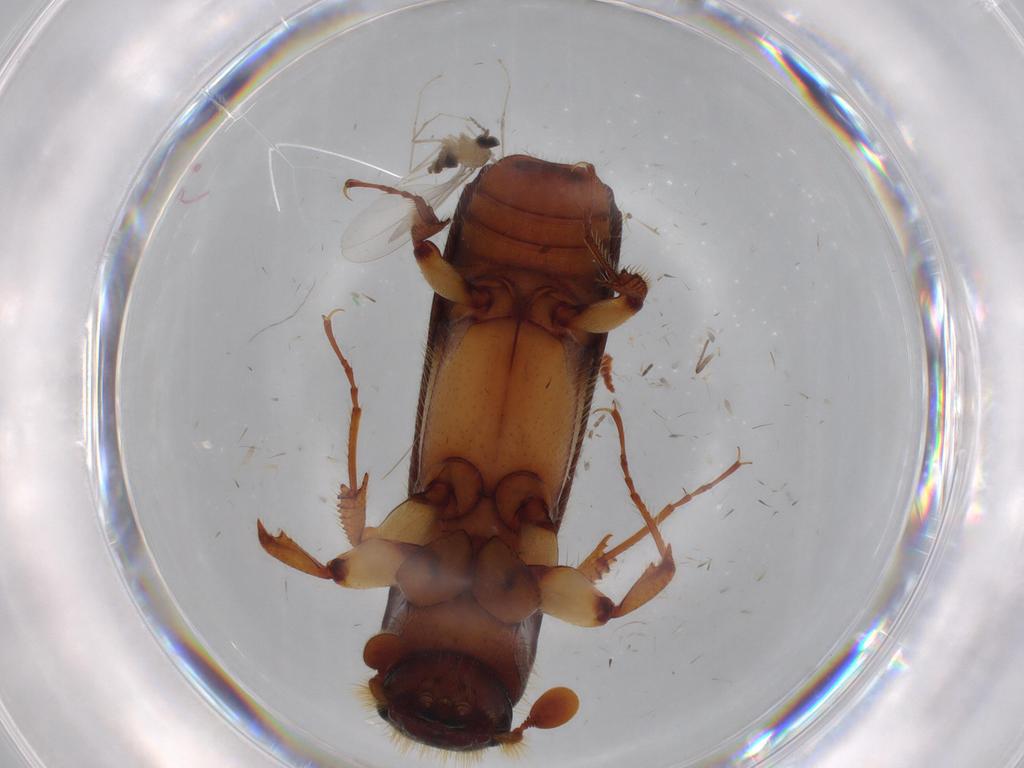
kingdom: Animalia
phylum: Arthropoda
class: Insecta
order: Coleoptera
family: Curculionidae
